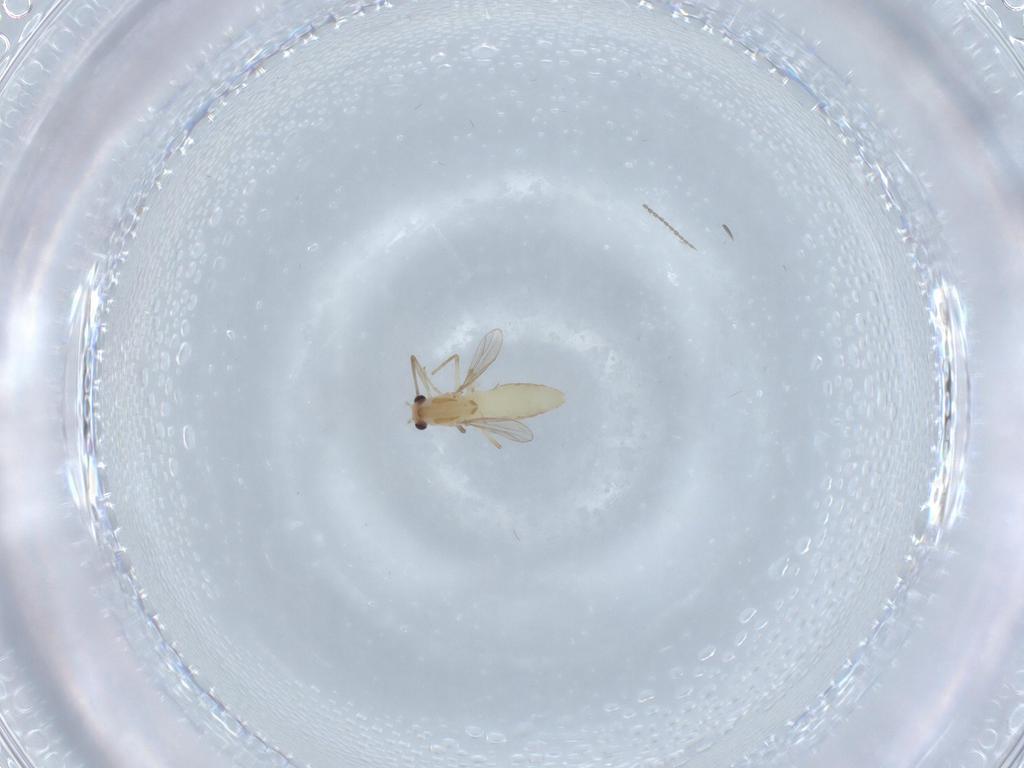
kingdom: Animalia
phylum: Arthropoda
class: Insecta
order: Diptera
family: Chironomidae
